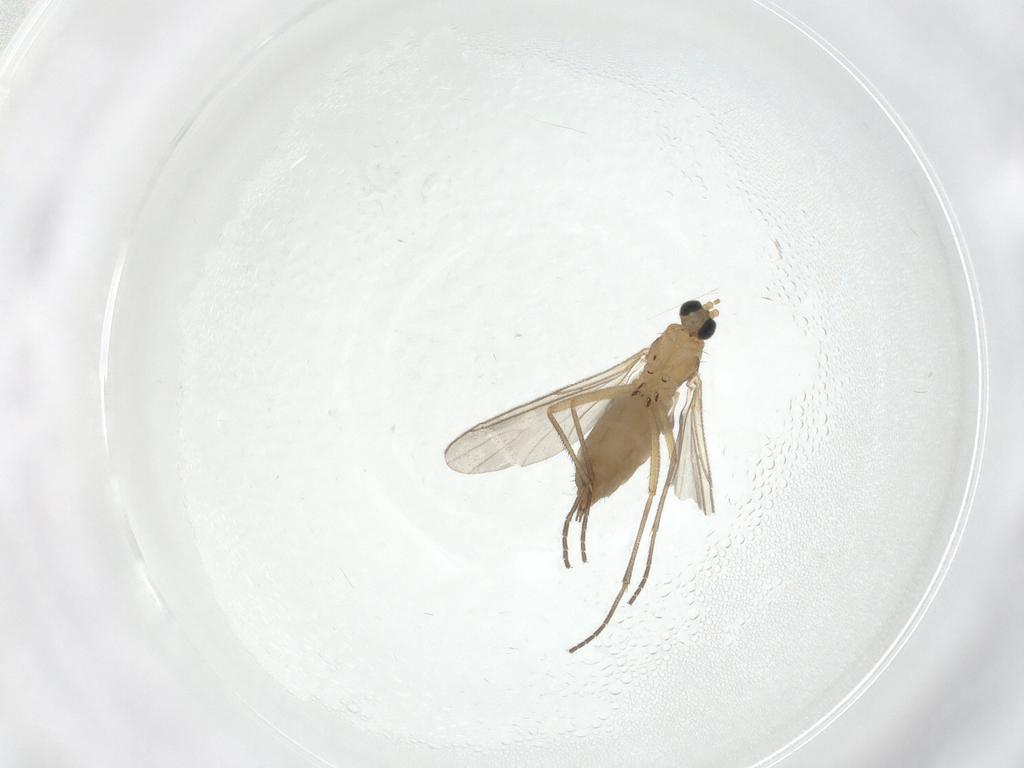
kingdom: Animalia
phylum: Arthropoda
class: Insecta
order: Diptera
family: Sciaridae
